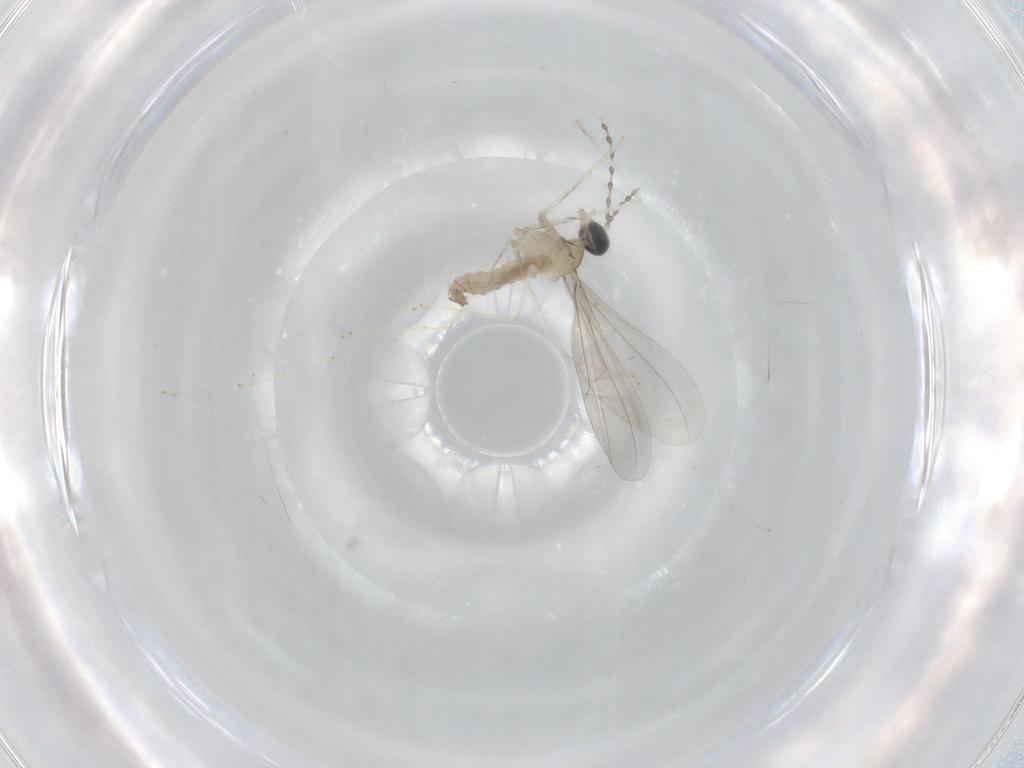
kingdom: Animalia
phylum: Arthropoda
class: Insecta
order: Diptera
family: Cecidomyiidae
